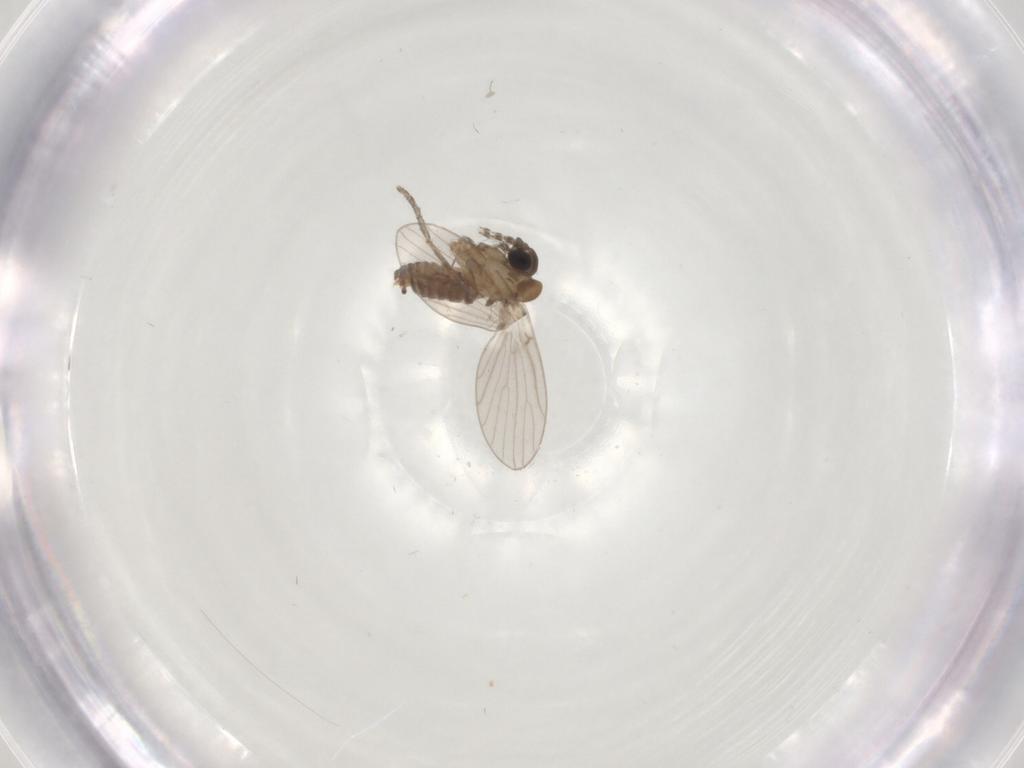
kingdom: Animalia
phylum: Arthropoda
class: Insecta
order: Diptera
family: Psychodidae
